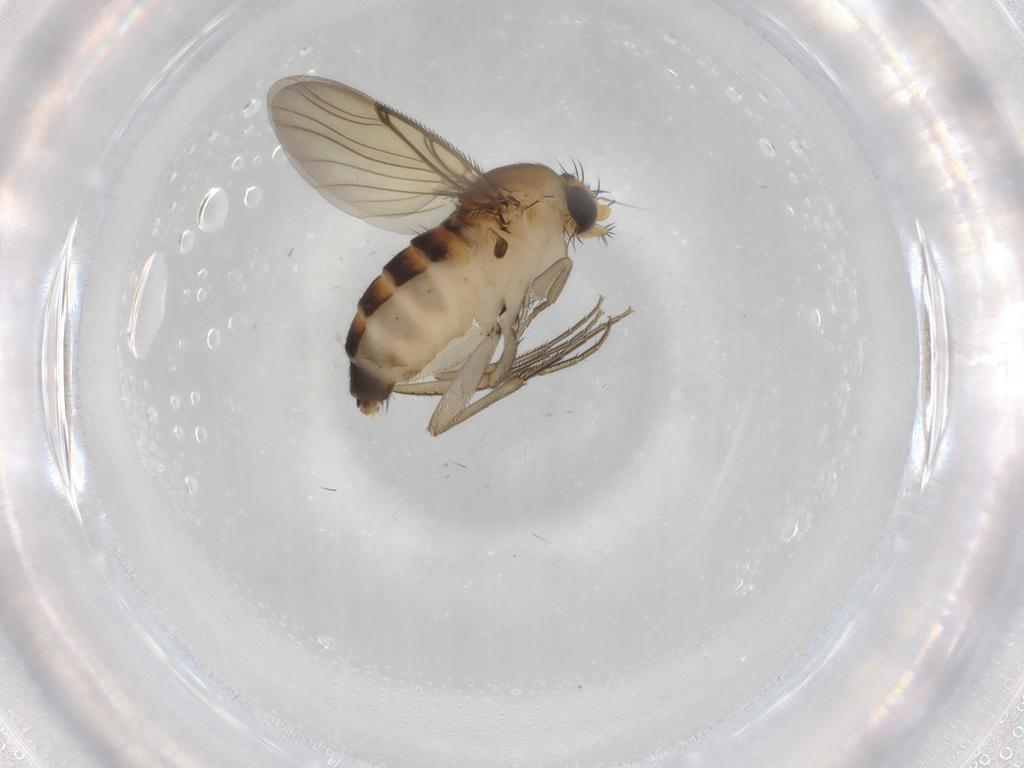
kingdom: Animalia
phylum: Arthropoda
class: Insecta
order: Diptera
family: Phoridae
